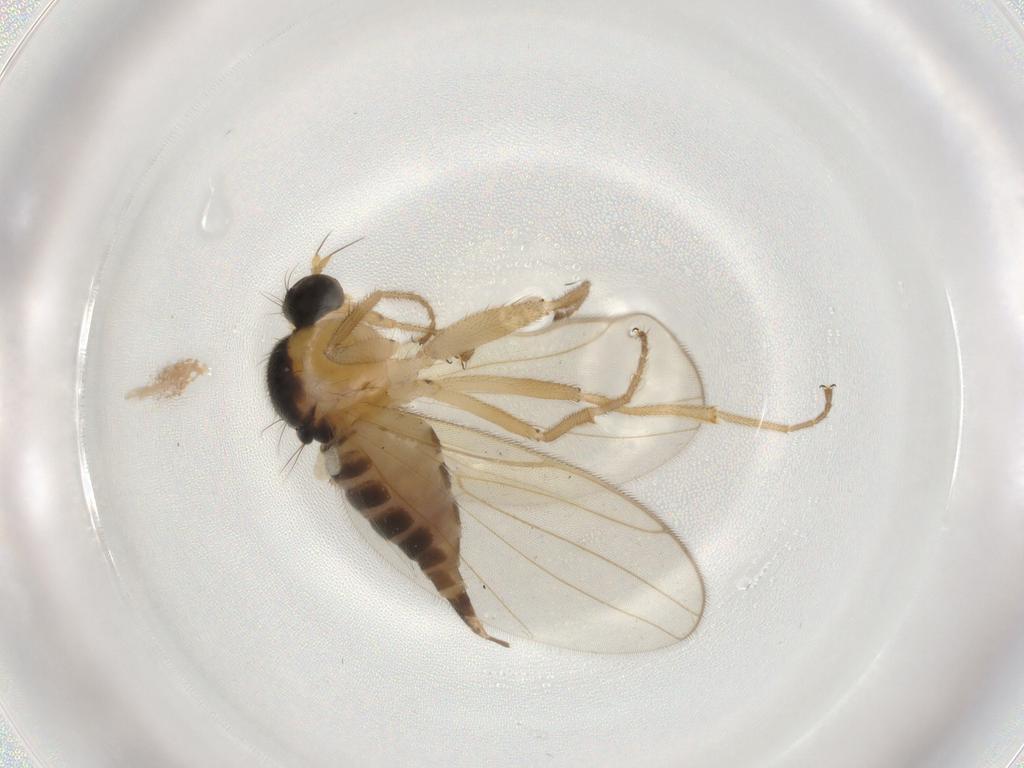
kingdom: Animalia
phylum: Arthropoda
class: Insecta
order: Diptera
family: Hybotidae
